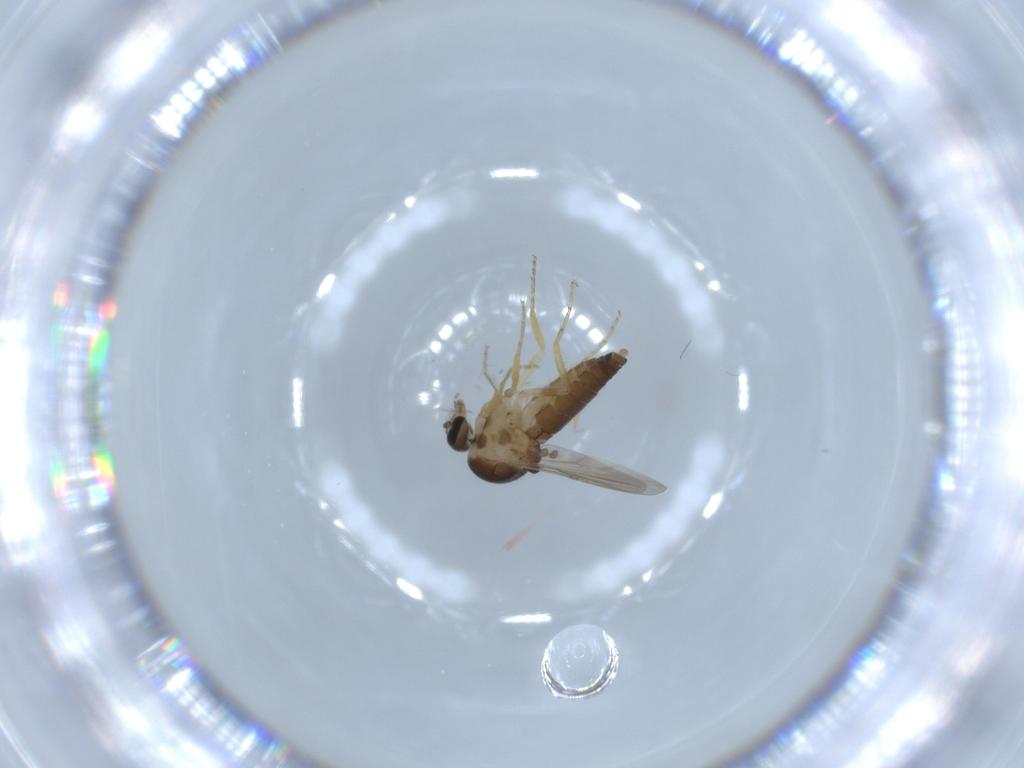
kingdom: Animalia
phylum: Arthropoda
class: Insecta
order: Diptera
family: Ceratopogonidae
